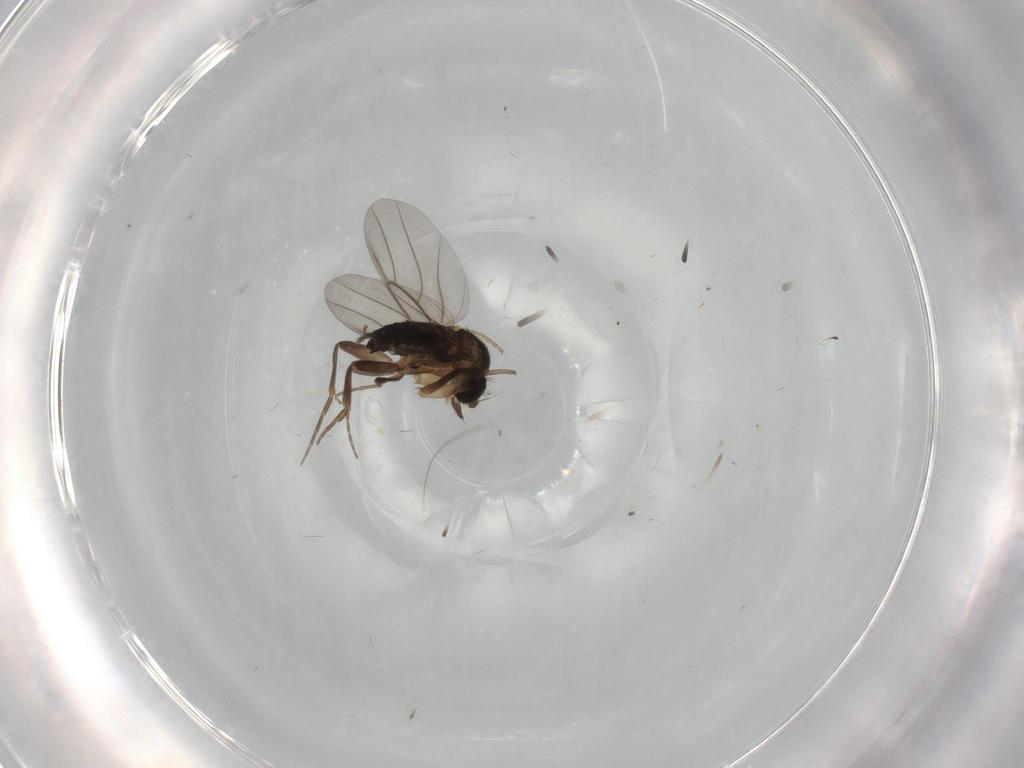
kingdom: Animalia
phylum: Arthropoda
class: Insecta
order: Diptera
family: Phoridae
